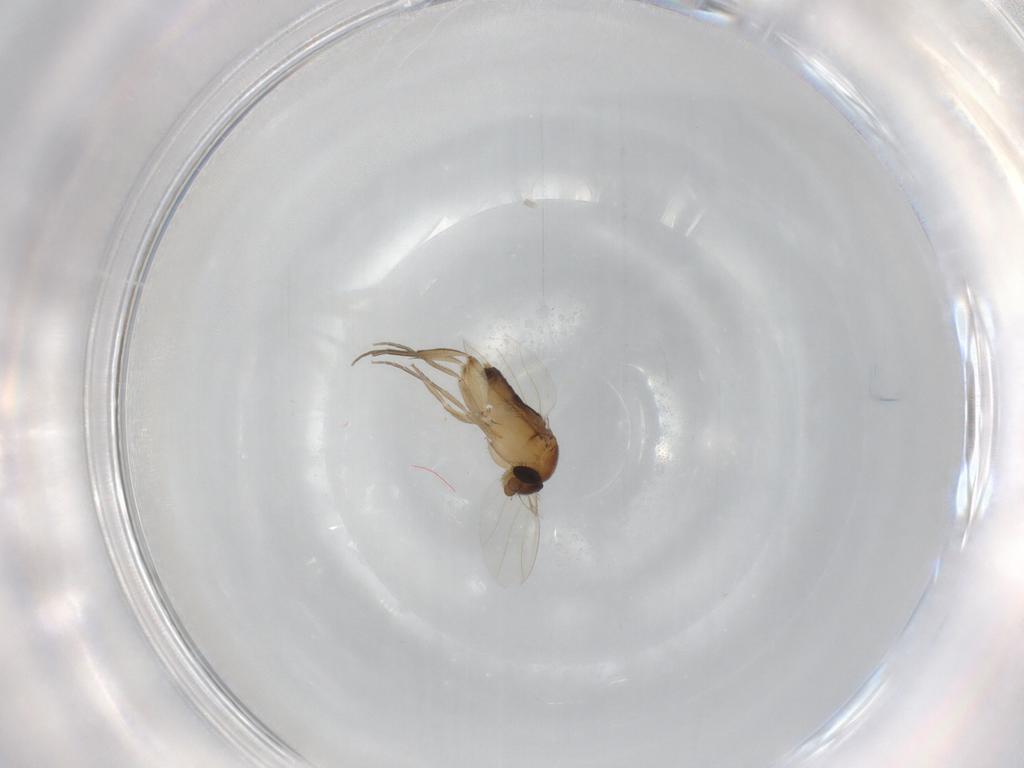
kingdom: Animalia
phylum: Arthropoda
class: Insecta
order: Diptera
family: Phoridae
